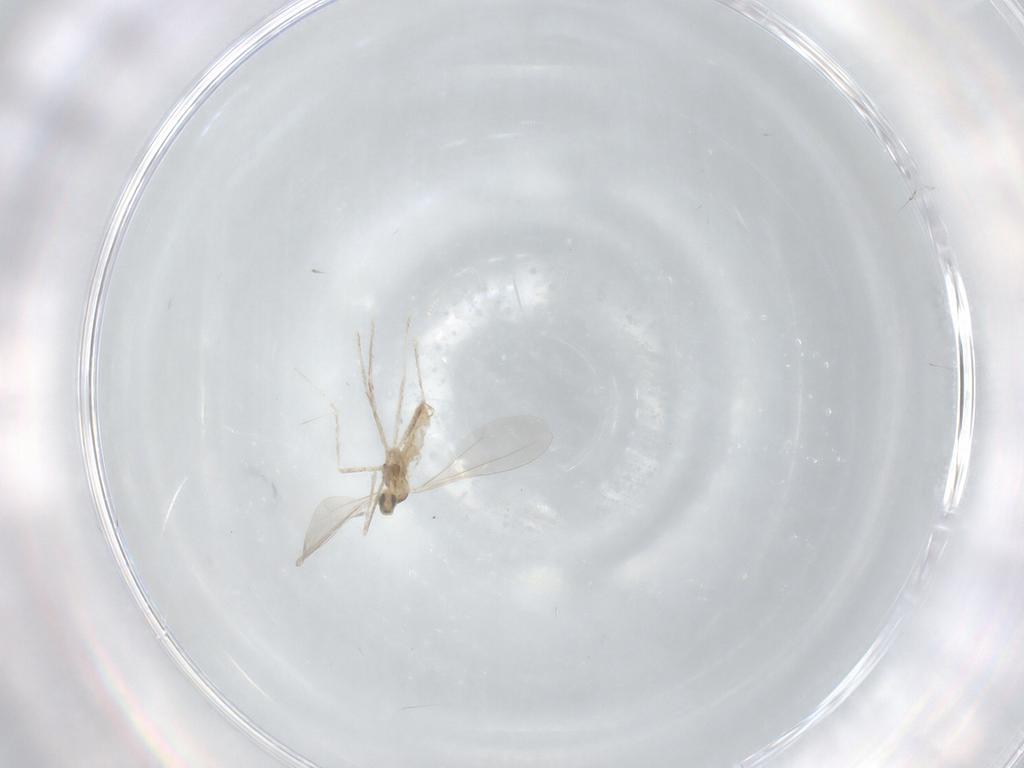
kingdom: Animalia
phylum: Arthropoda
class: Insecta
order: Diptera
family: Cecidomyiidae
